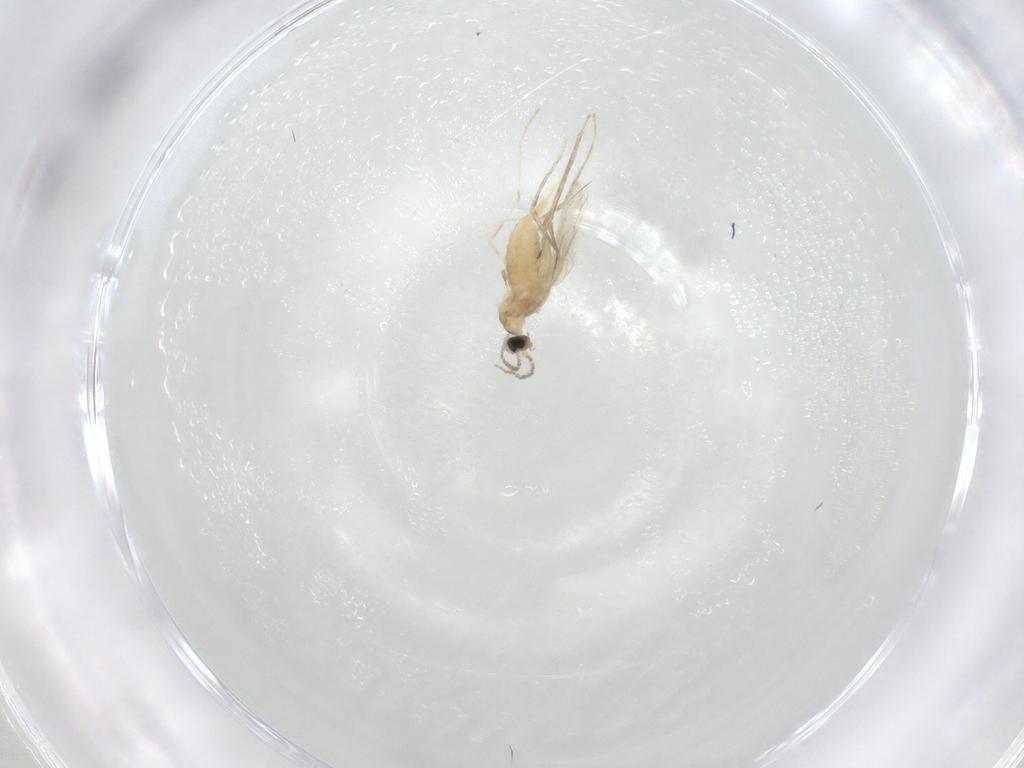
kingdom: Animalia
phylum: Arthropoda
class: Insecta
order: Diptera
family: Cecidomyiidae
